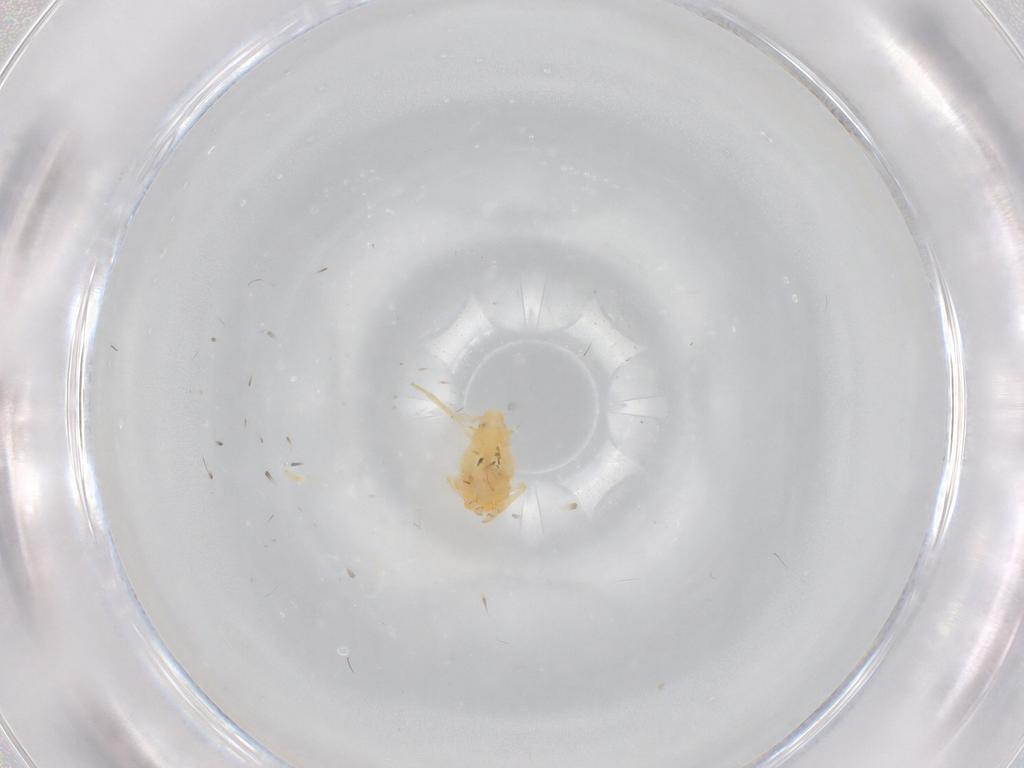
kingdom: Animalia
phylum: Arthropoda
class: Insecta
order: Hemiptera
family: Flatidae
